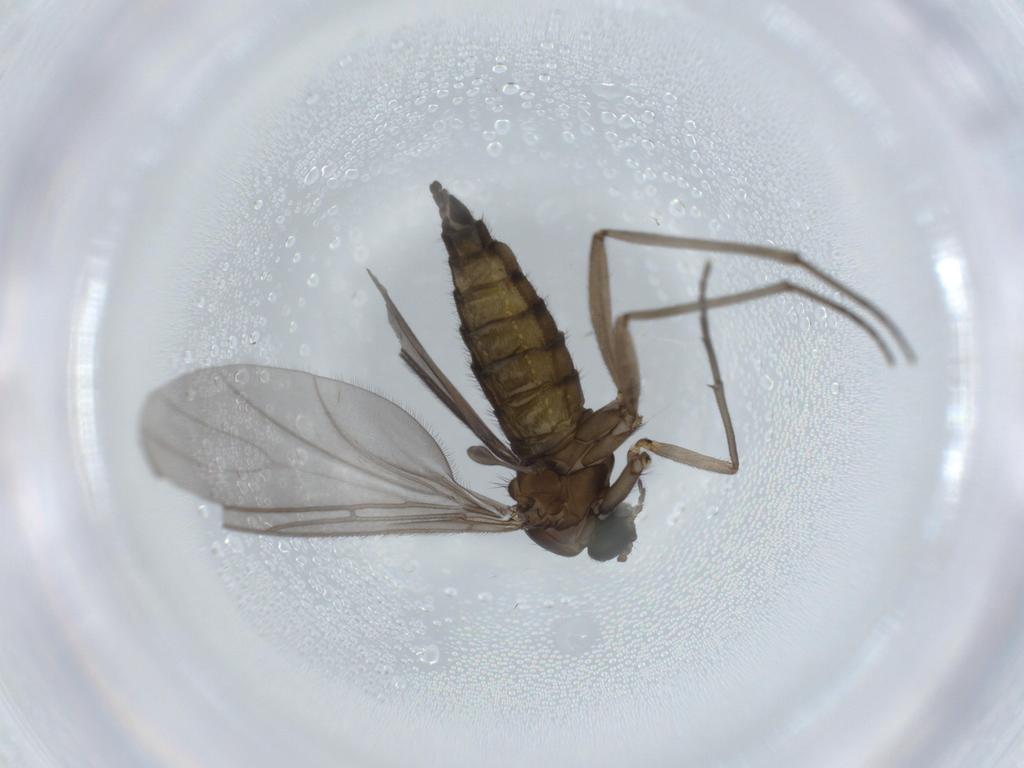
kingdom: Animalia
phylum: Arthropoda
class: Insecta
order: Diptera
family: Sciaridae
